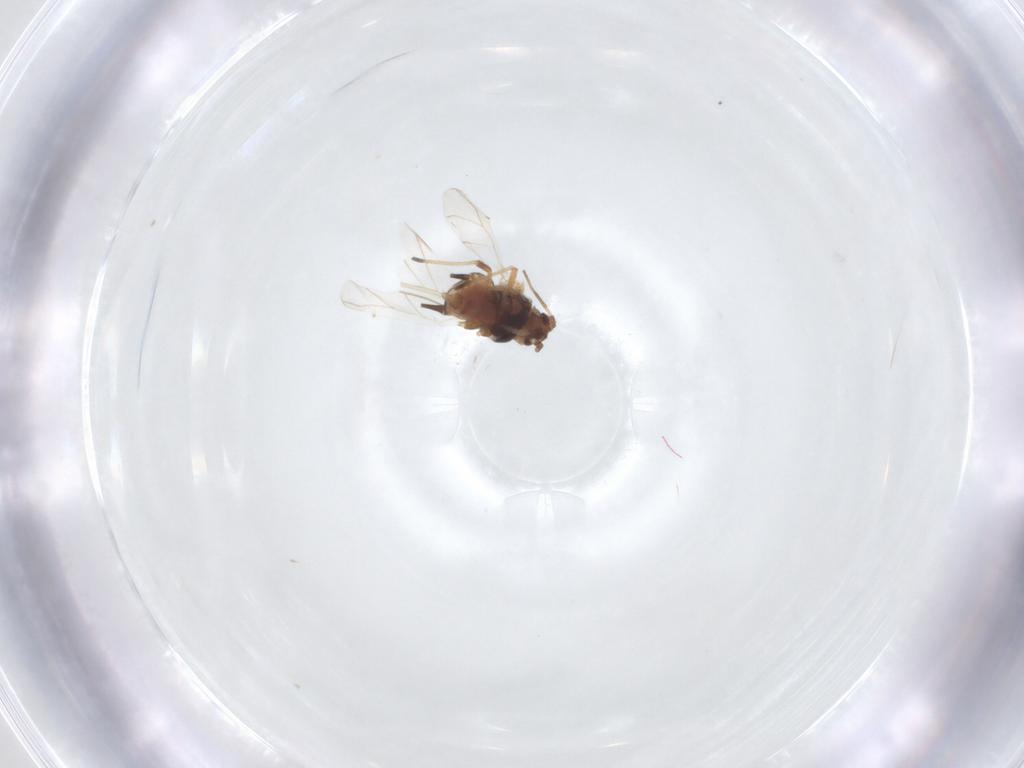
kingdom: Animalia
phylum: Arthropoda
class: Insecta
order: Hemiptera
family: Aphididae
